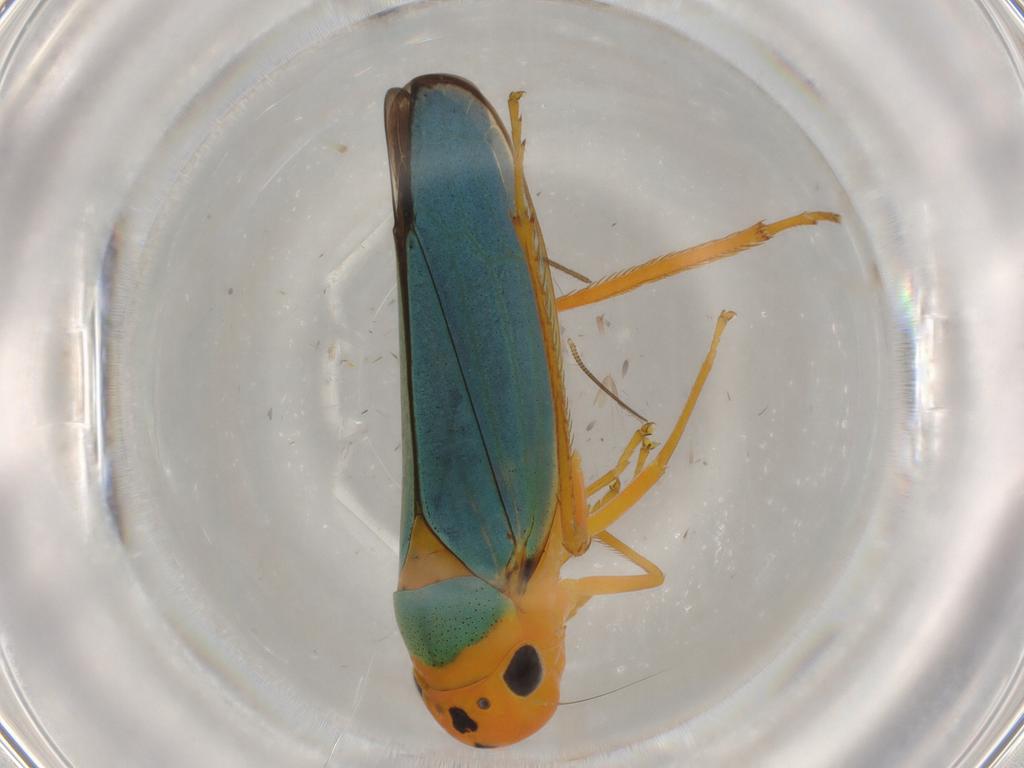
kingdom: Animalia
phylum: Arthropoda
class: Insecta
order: Hemiptera
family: Cicadellidae
